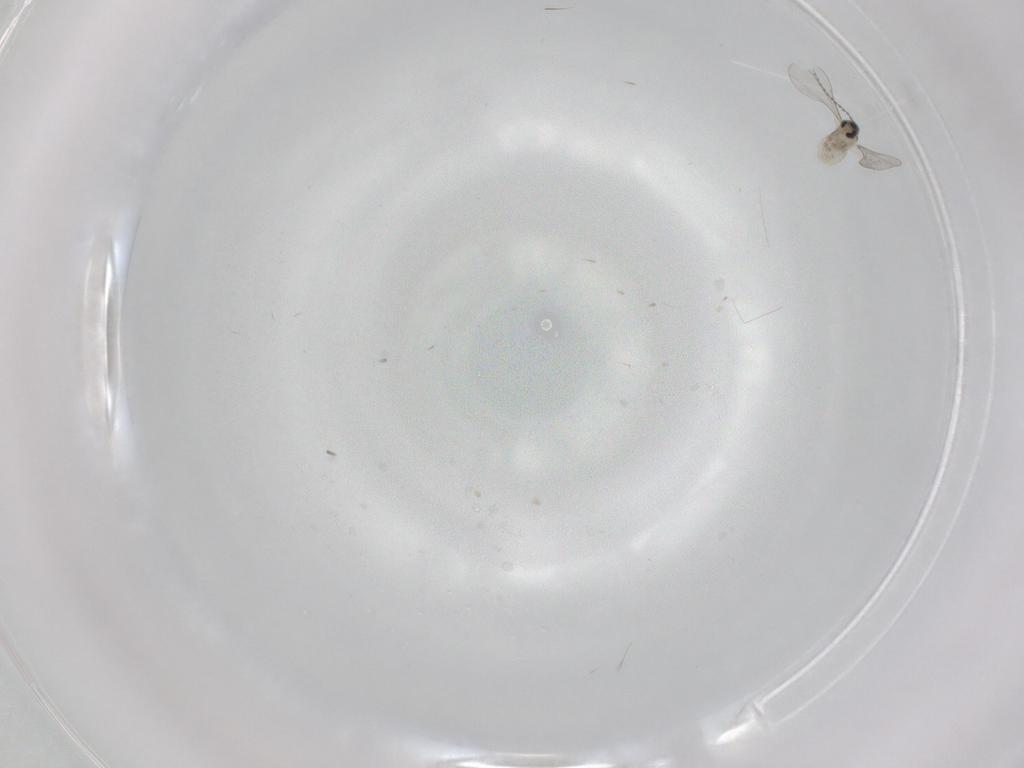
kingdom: Animalia
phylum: Arthropoda
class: Insecta
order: Diptera
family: Cecidomyiidae
